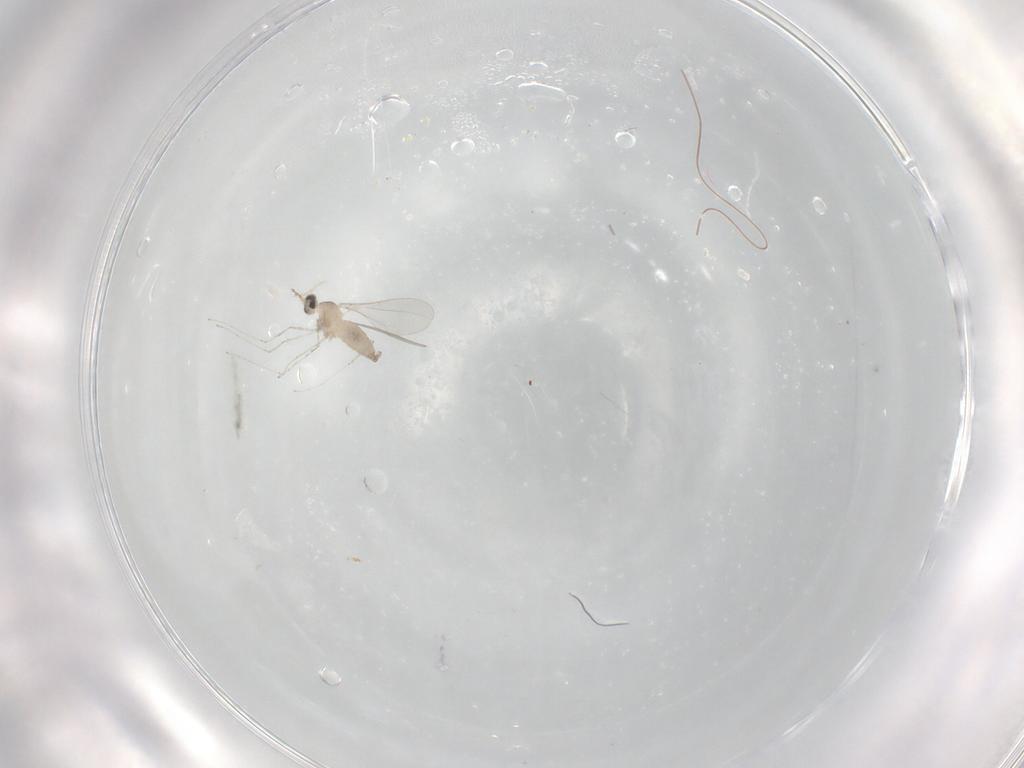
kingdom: Animalia
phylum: Arthropoda
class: Insecta
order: Diptera
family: Cecidomyiidae
